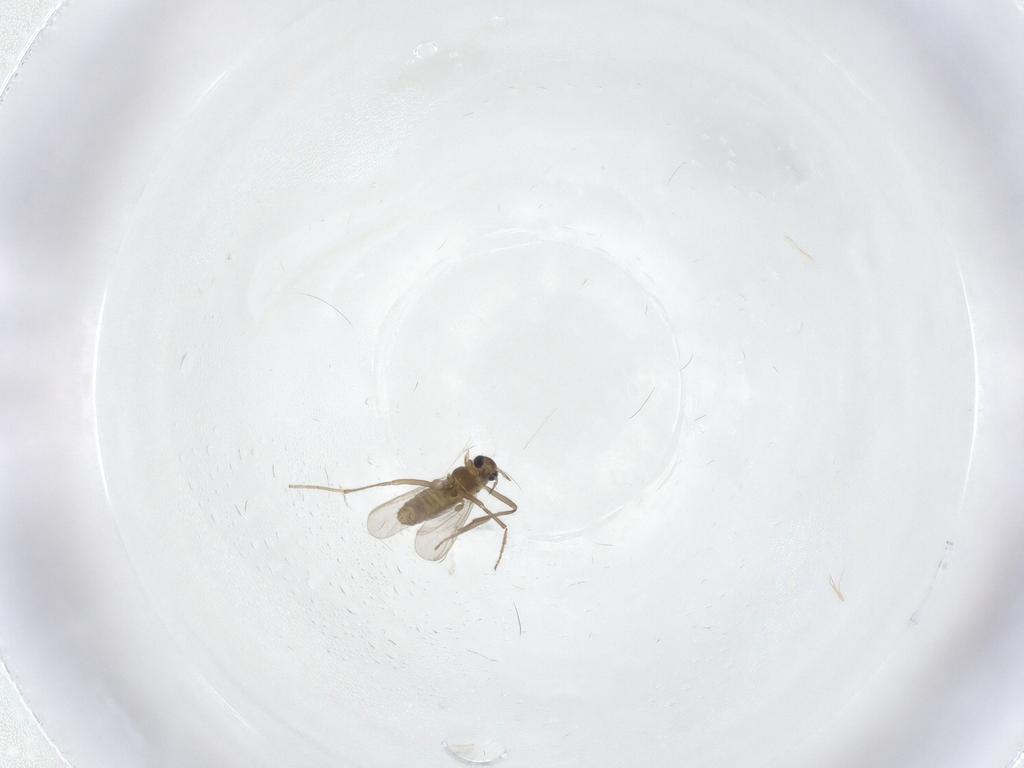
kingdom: Animalia
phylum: Arthropoda
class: Insecta
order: Diptera
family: Chironomidae
